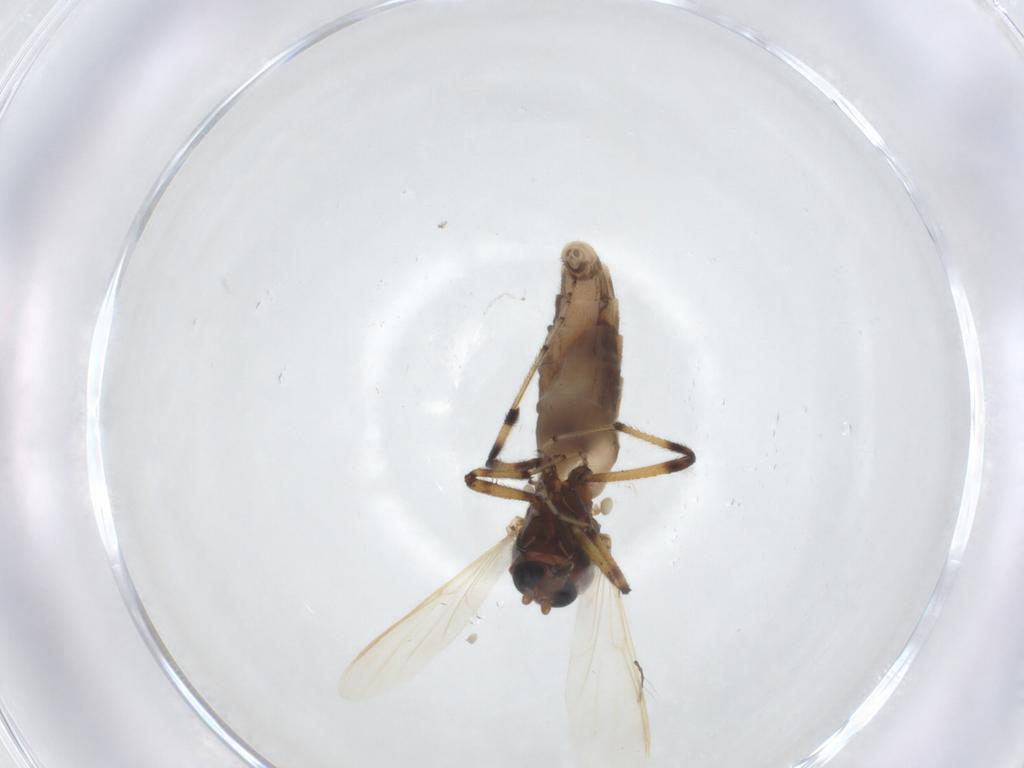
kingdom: Animalia
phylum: Arthropoda
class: Insecta
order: Diptera
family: Ceratopogonidae
